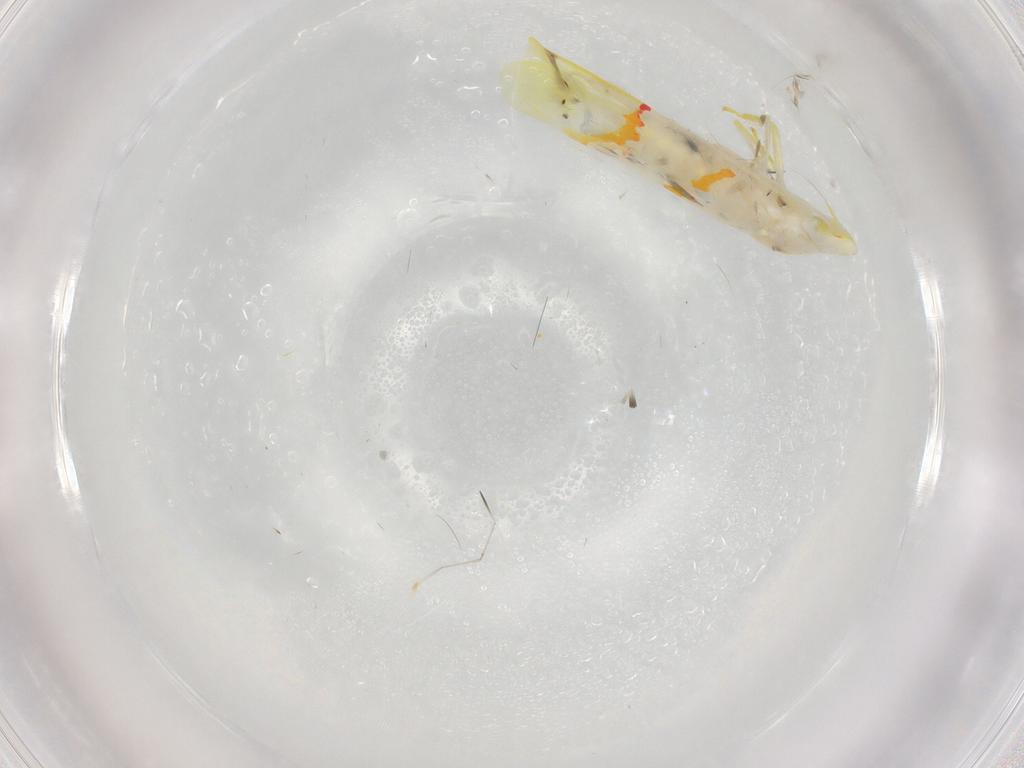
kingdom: Animalia
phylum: Arthropoda
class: Insecta
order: Hemiptera
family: Cicadellidae
